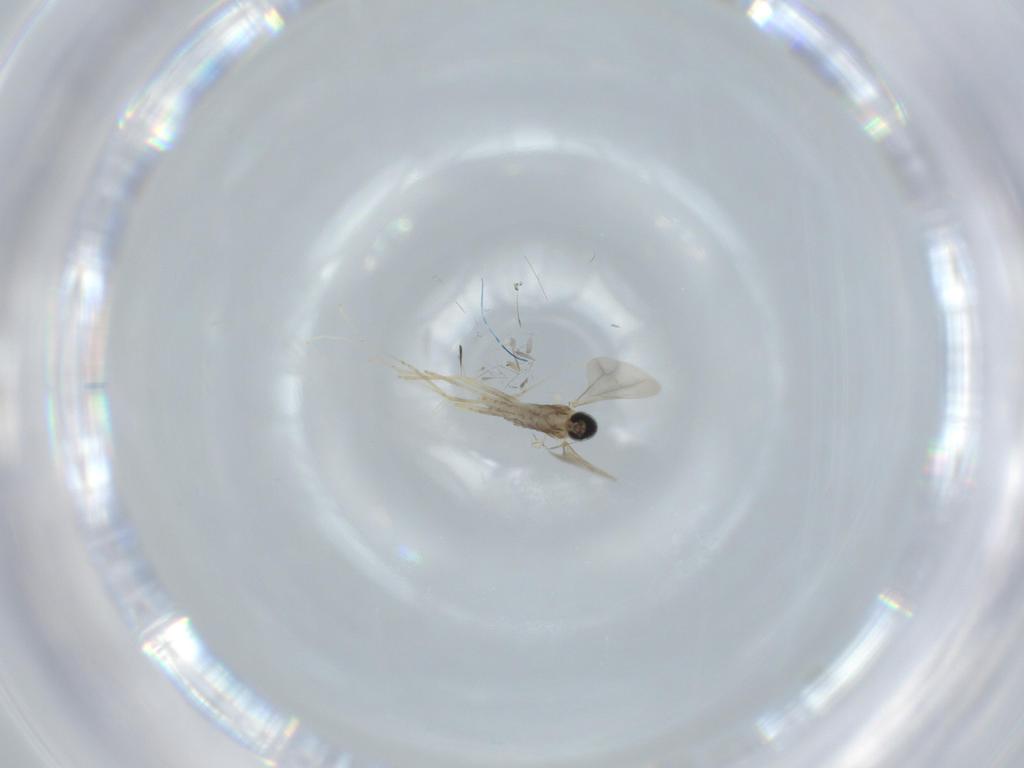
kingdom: Animalia
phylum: Arthropoda
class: Insecta
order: Diptera
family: Cecidomyiidae
